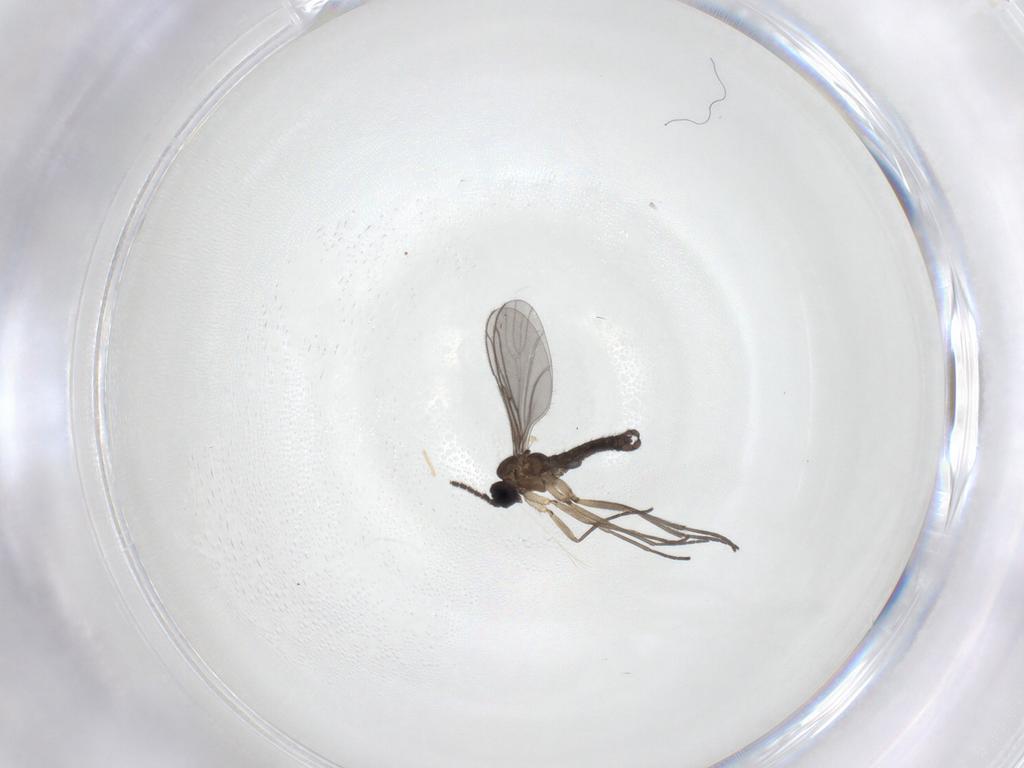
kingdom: Animalia
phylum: Arthropoda
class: Insecta
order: Diptera
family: Sciaridae
